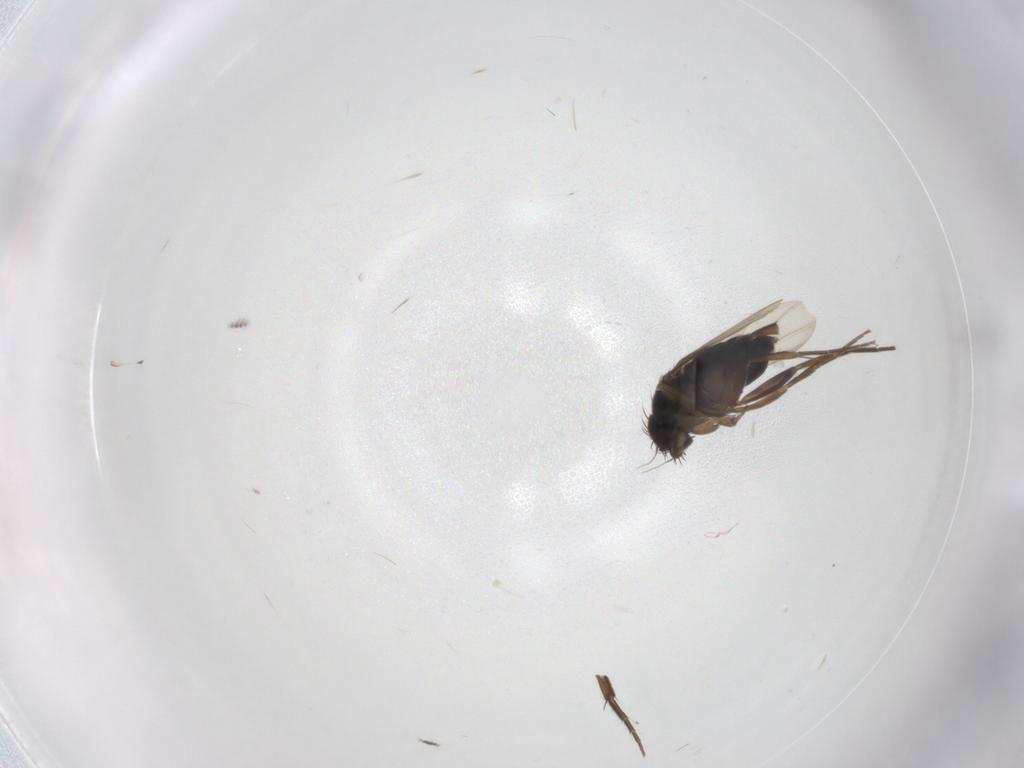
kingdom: Animalia
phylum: Arthropoda
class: Insecta
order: Diptera
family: Phoridae
